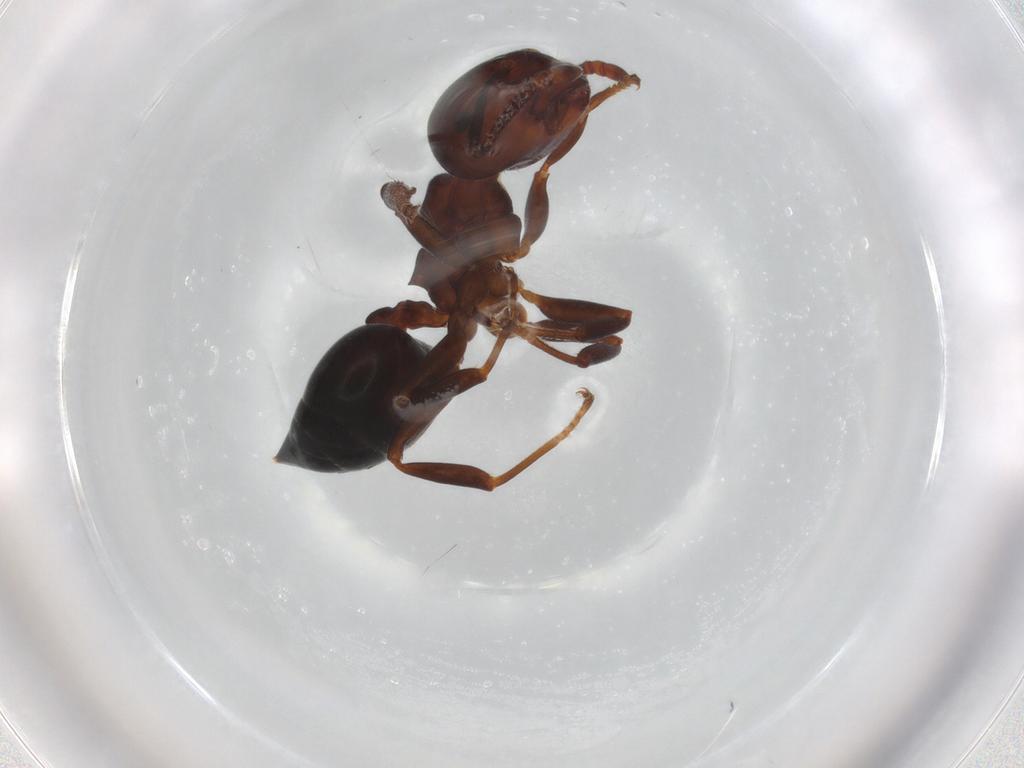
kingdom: Animalia
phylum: Arthropoda
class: Insecta
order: Hymenoptera
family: Formicidae
